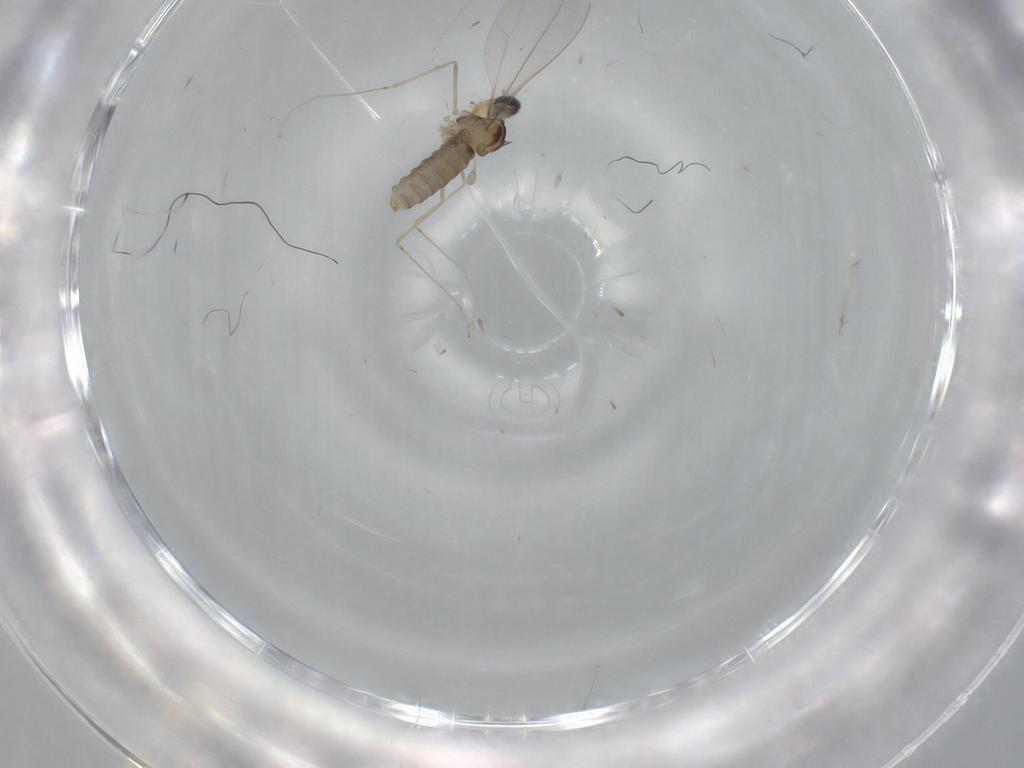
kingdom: Animalia
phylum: Arthropoda
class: Insecta
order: Diptera
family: Cecidomyiidae
